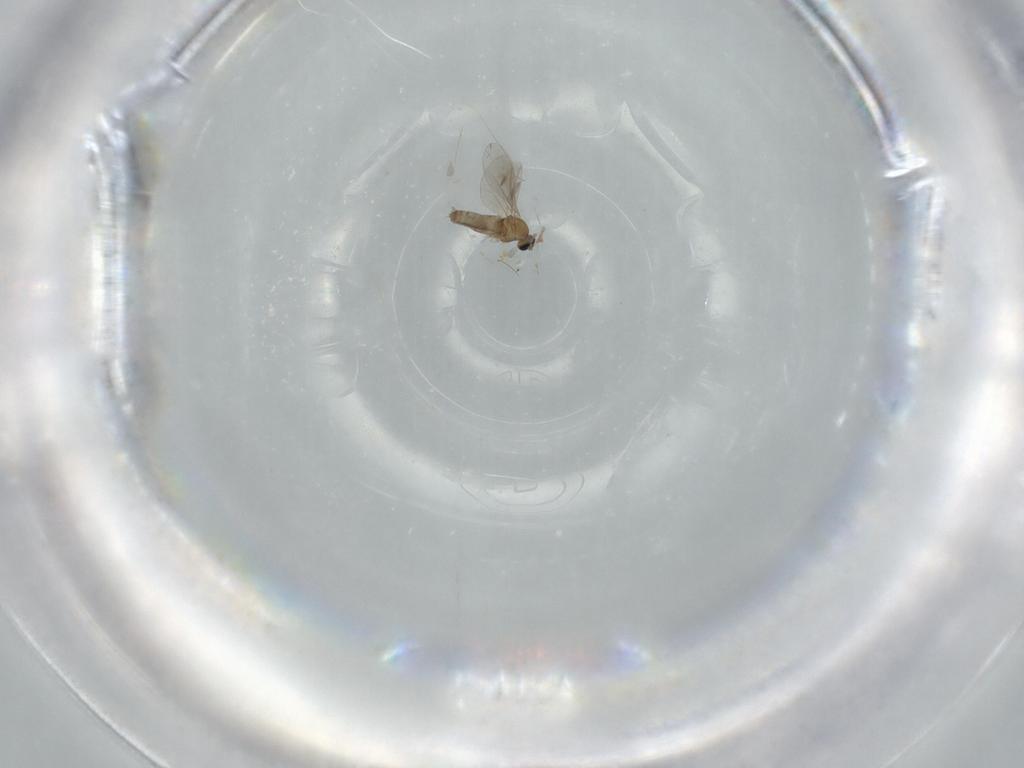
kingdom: Animalia
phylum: Arthropoda
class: Insecta
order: Diptera
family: Cecidomyiidae
